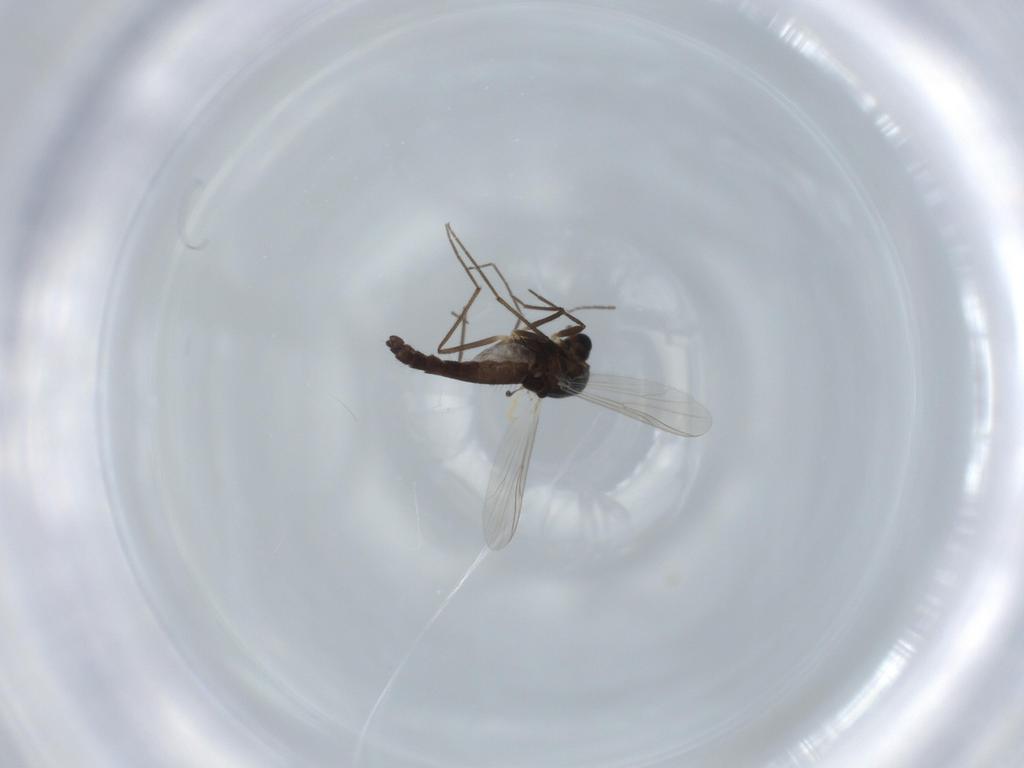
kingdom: Animalia
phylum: Arthropoda
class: Insecta
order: Diptera
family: Chironomidae
